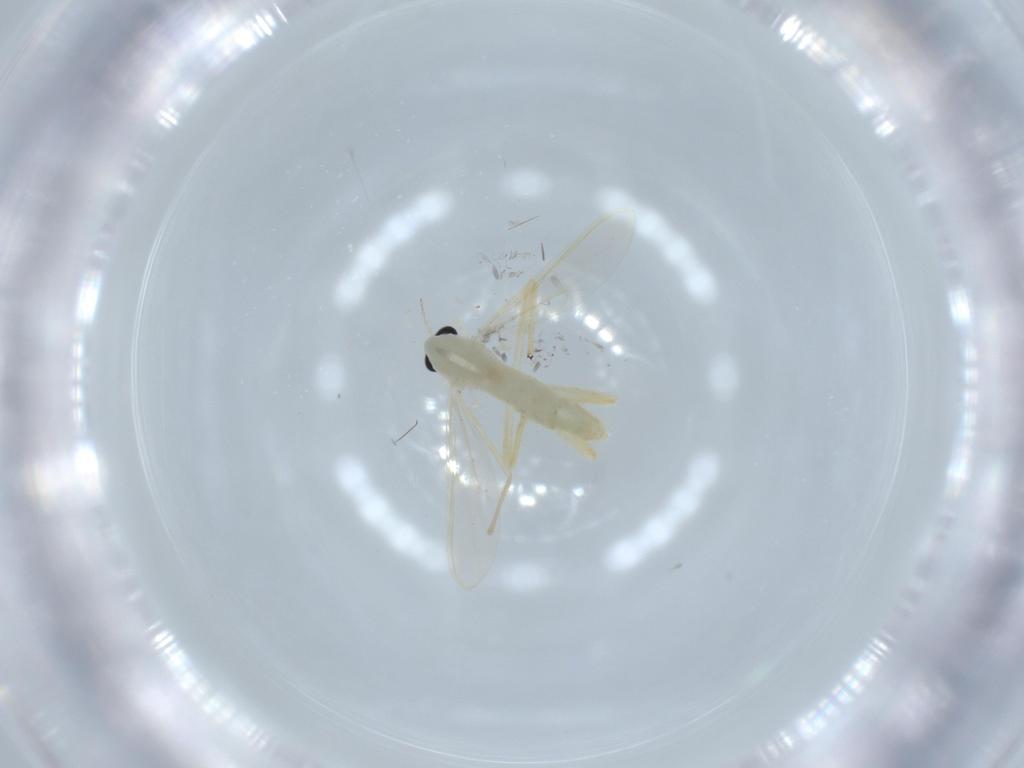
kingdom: Animalia
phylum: Arthropoda
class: Insecta
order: Diptera
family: Chironomidae
